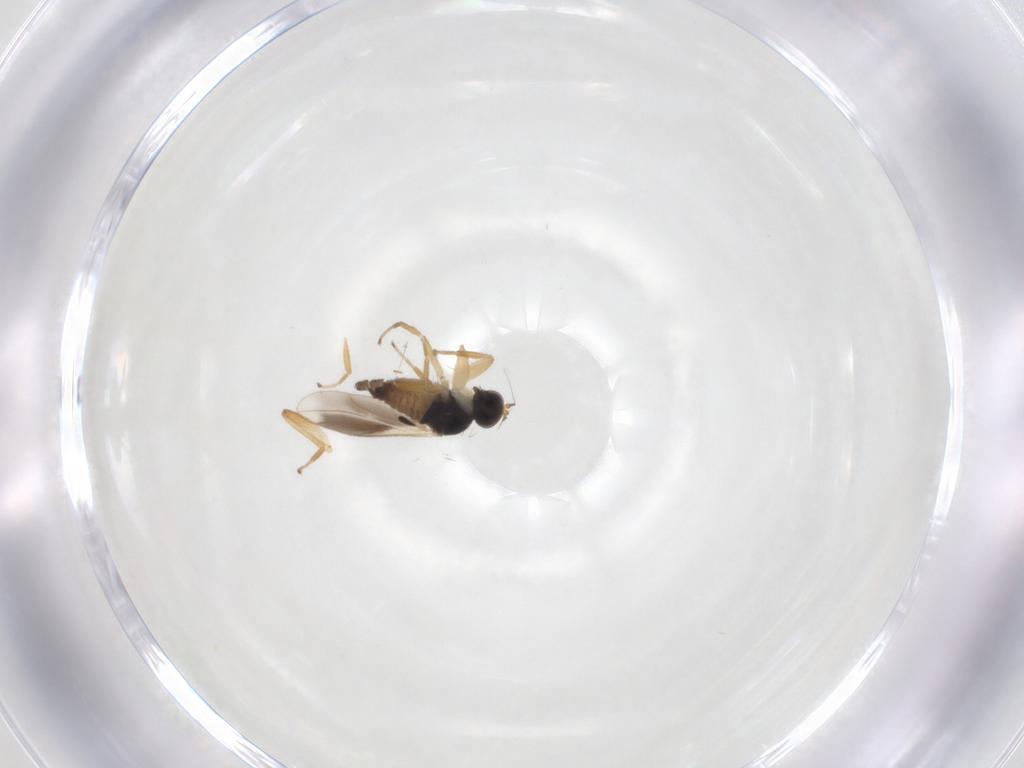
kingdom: Animalia
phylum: Arthropoda
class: Insecta
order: Diptera
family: Hybotidae
